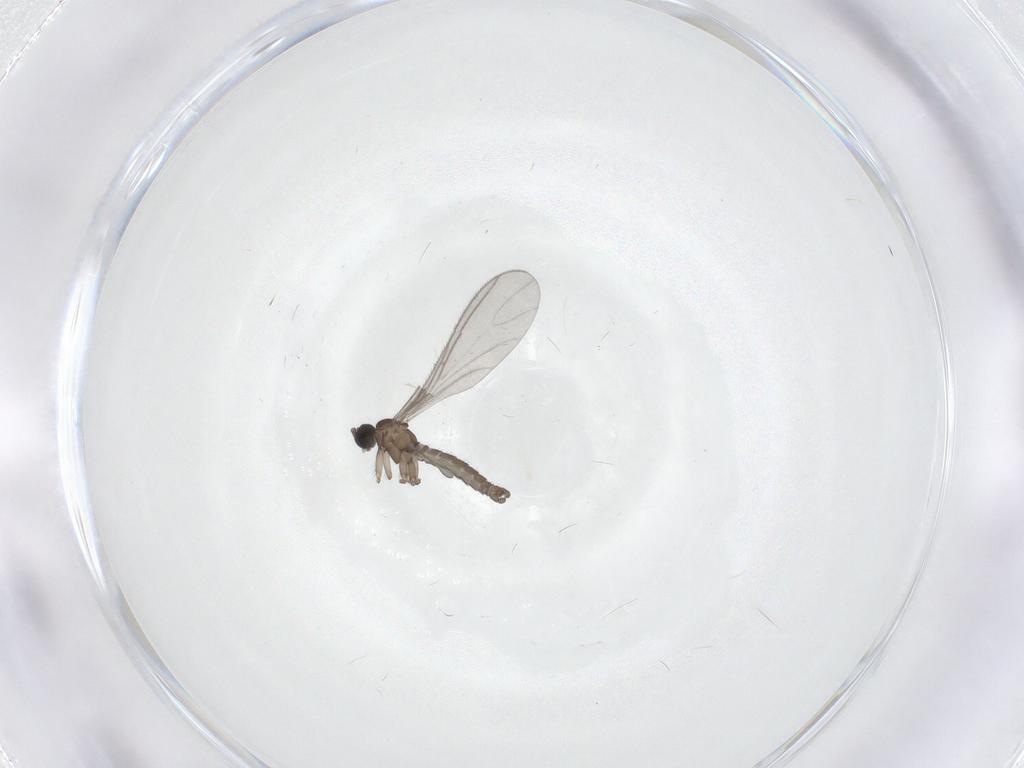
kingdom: Animalia
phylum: Arthropoda
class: Insecta
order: Diptera
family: Sciaridae
